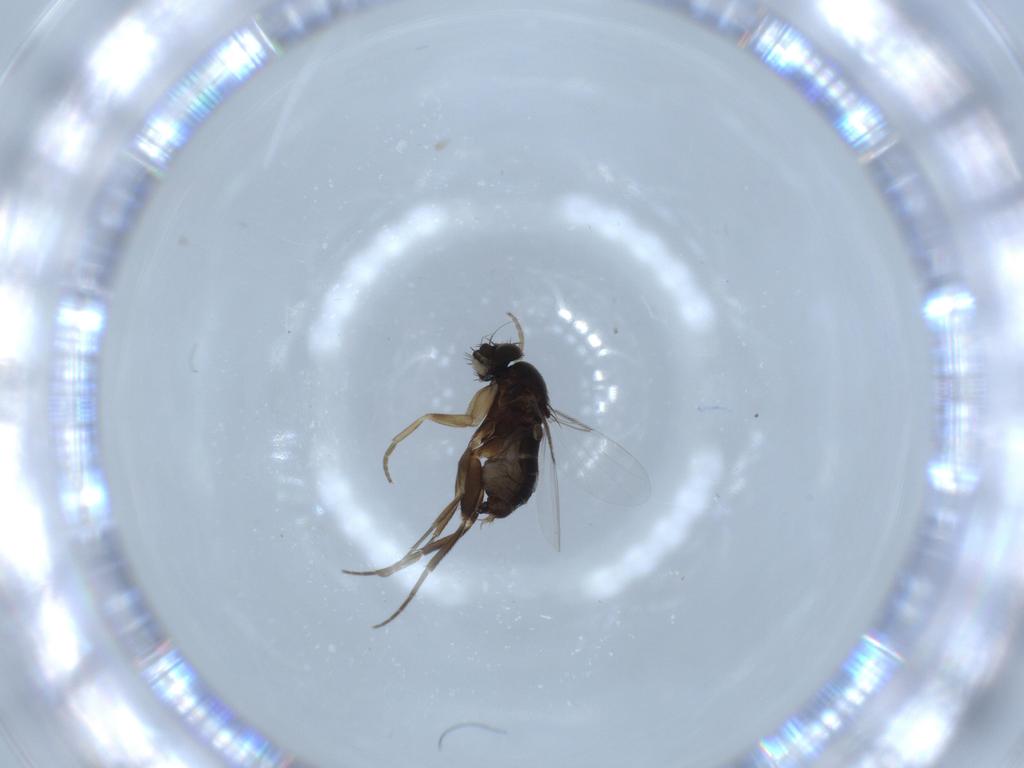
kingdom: Animalia
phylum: Arthropoda
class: Insecta
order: Diptera
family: Phoridae
